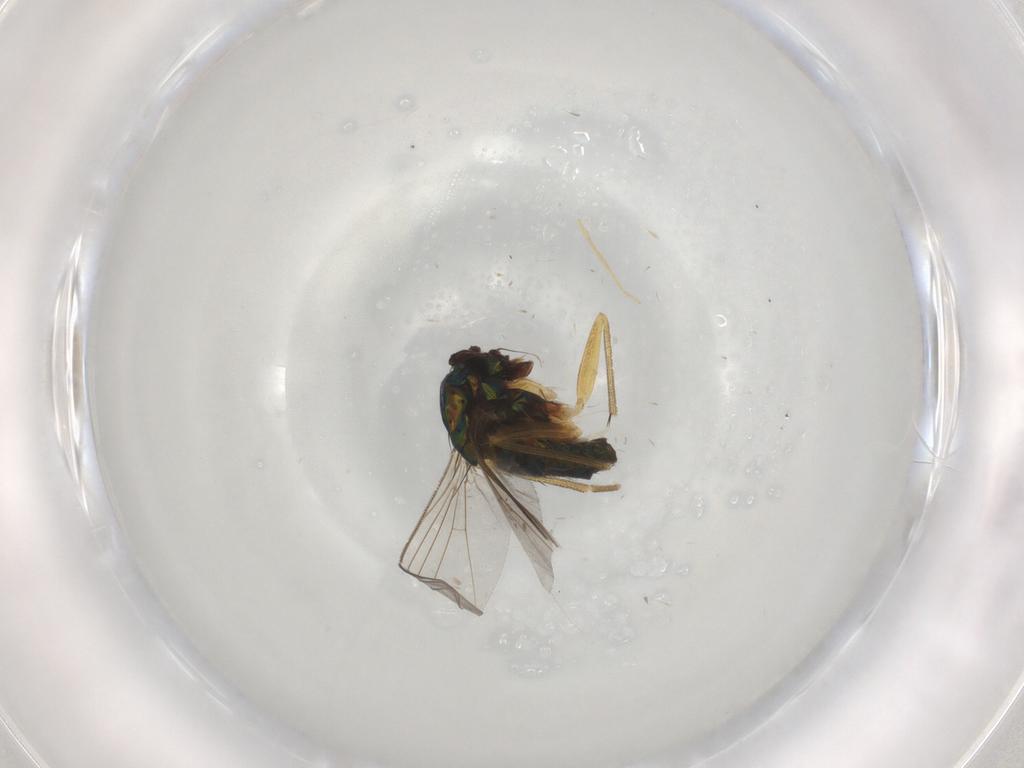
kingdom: Animalia
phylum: Arthropoda
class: Insecta
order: Diptera
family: Dolichopodidae
